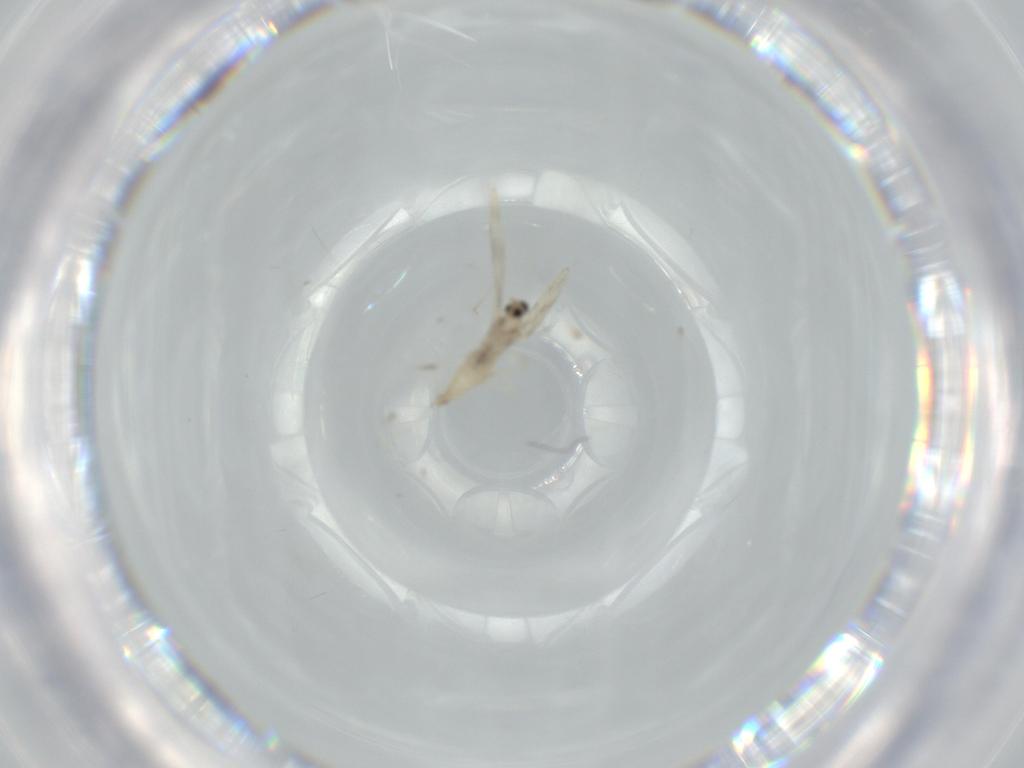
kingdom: Animalia
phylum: Arthropoda
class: Insecta
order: Diptera
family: Cecidomyiidae
